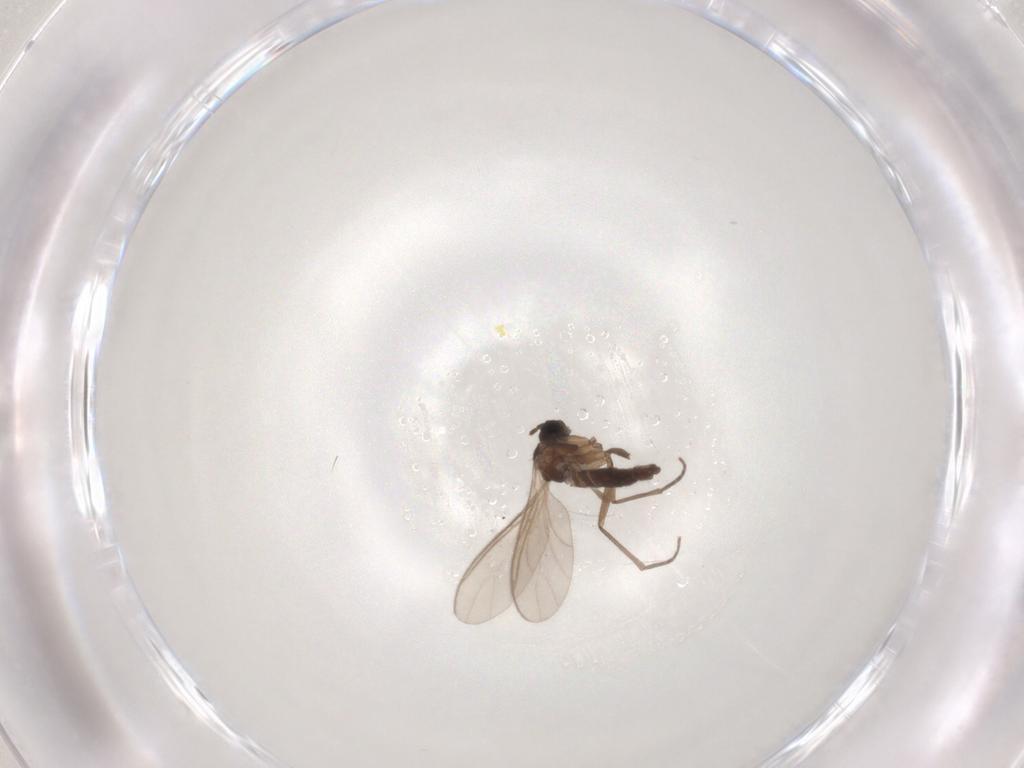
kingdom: Animalia
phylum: Arthropoda
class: Insecta
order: Diptera
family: Sciaridae
